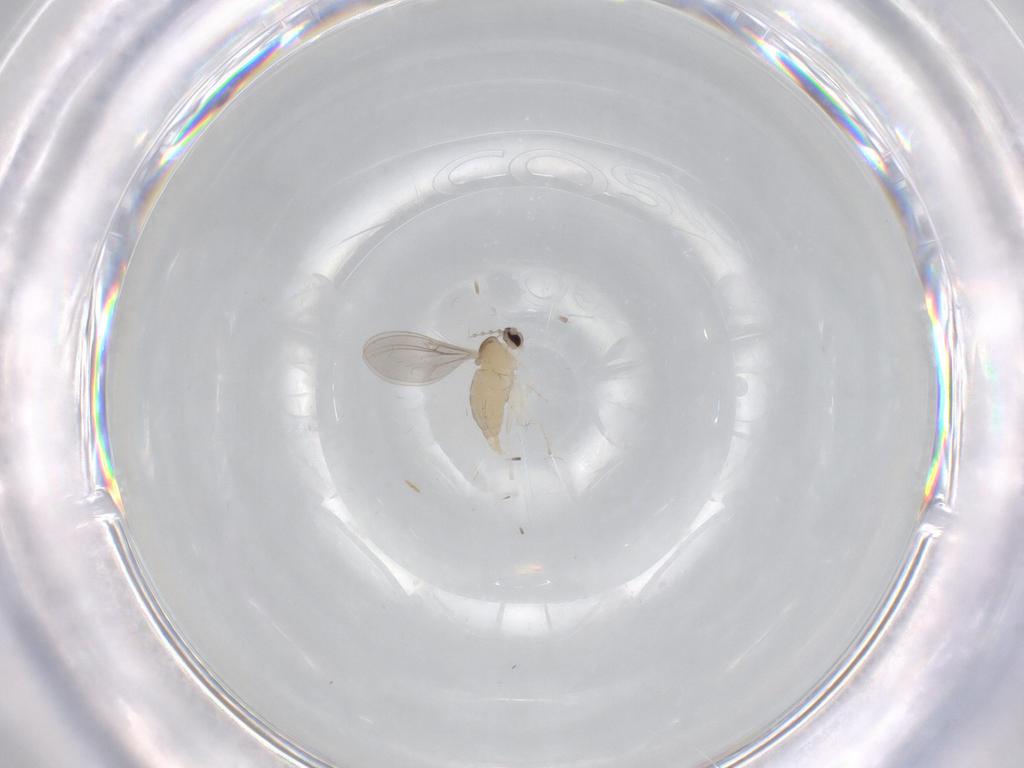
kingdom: Animalia
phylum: Arthropoda
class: Insecta
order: Diptera
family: Cecidomyiidae
